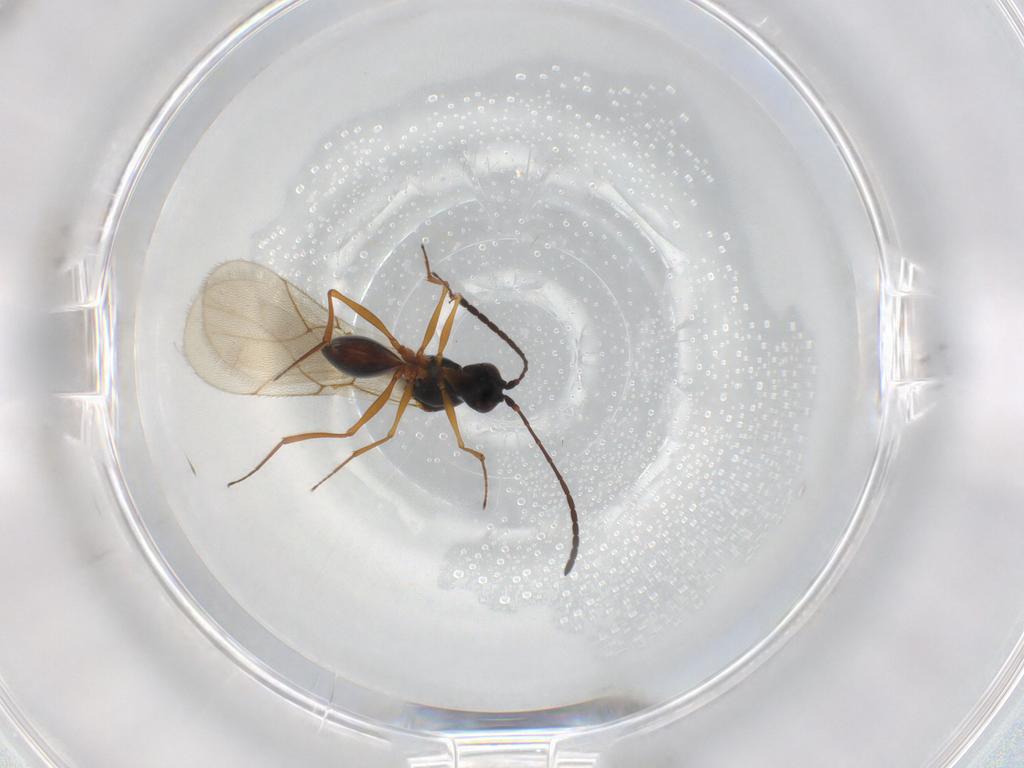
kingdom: Animalia
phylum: Arthropoda
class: Insecta
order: Hymenoptera
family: Figitidae
